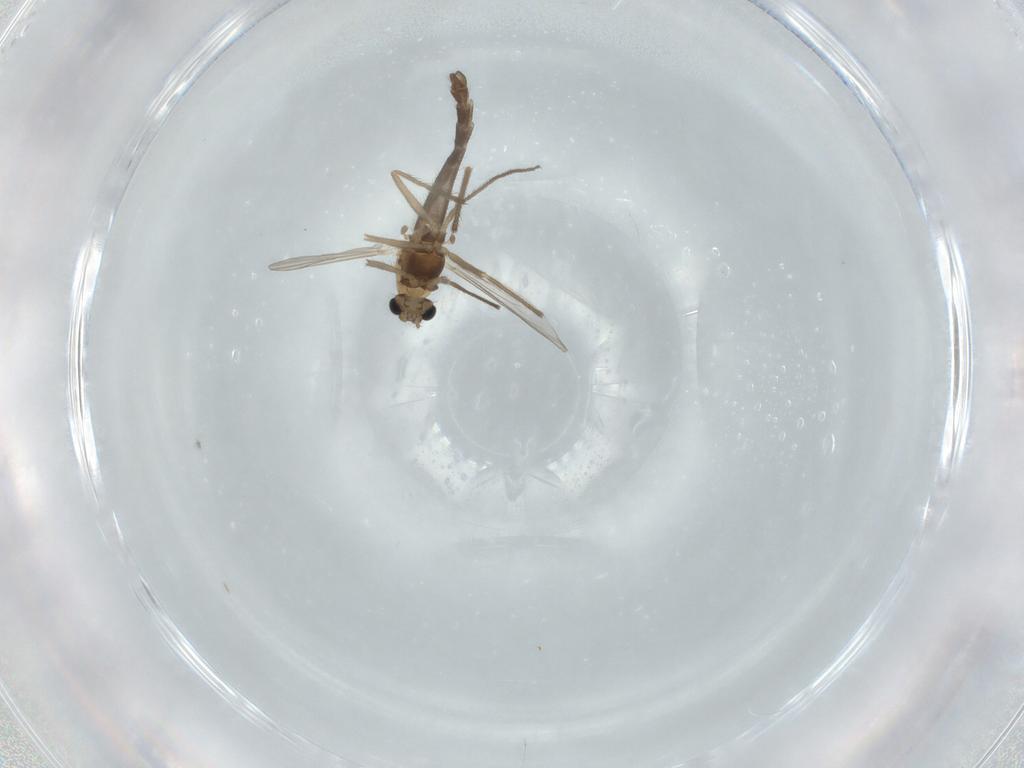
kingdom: Animalia
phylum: Arthropoda
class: Insecta
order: Diptera
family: Chironomidae
